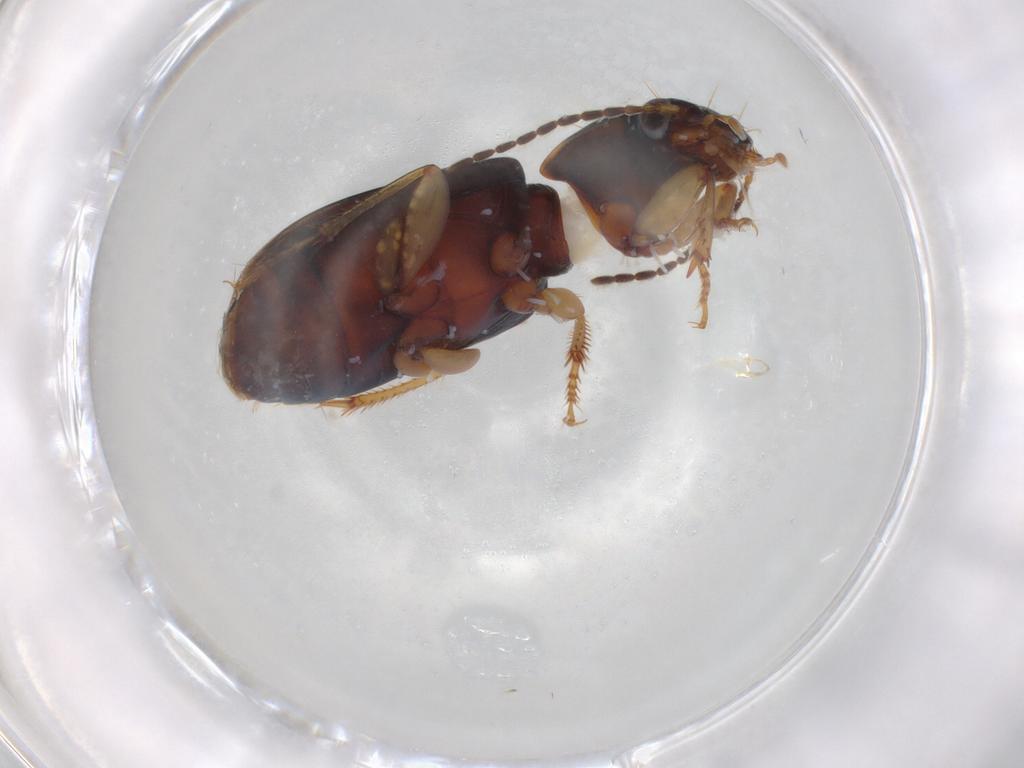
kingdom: Animalia
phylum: Arthropoda
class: Insecta
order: Coleoptera
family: Carabidae
